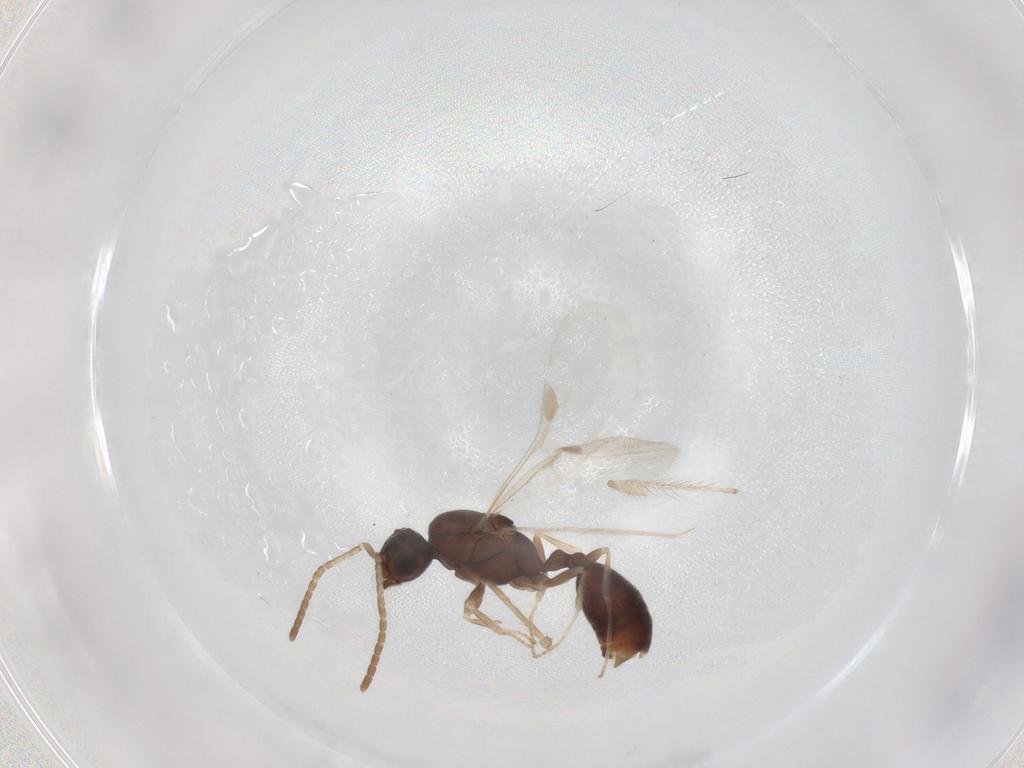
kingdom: Animalia
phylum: Arthropoda
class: Insecta
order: Hymenoptera
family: Formicidae
